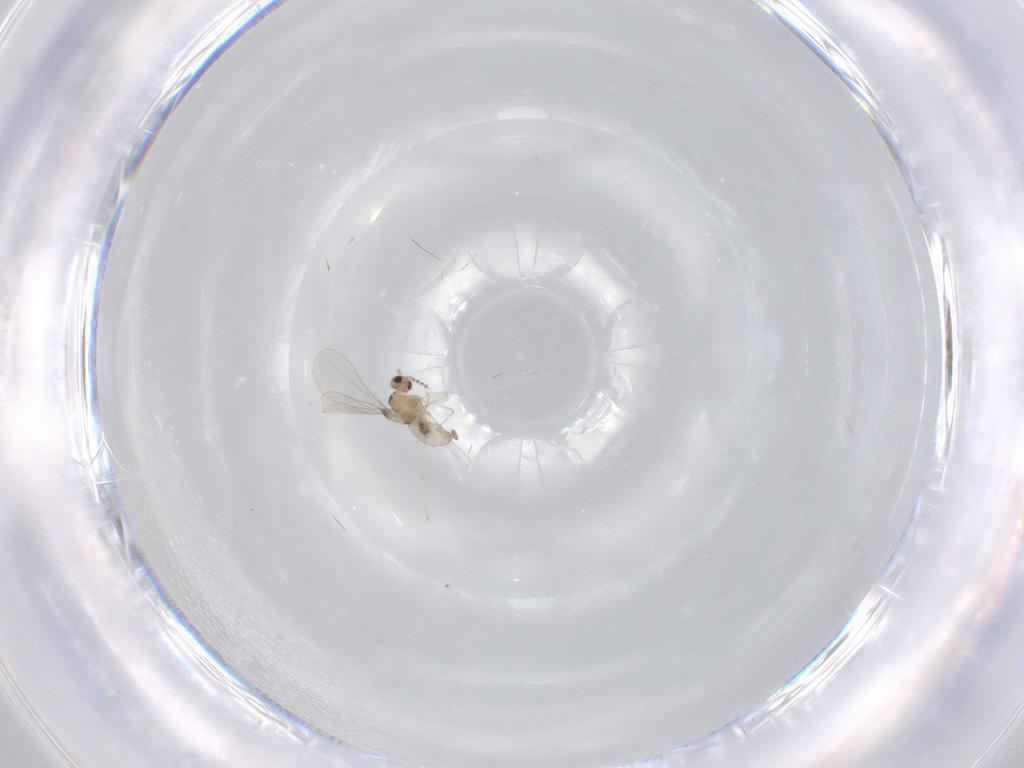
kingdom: Animalia
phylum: Arthropoda
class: Insecta
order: Diptera
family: Cecidomyiidae
